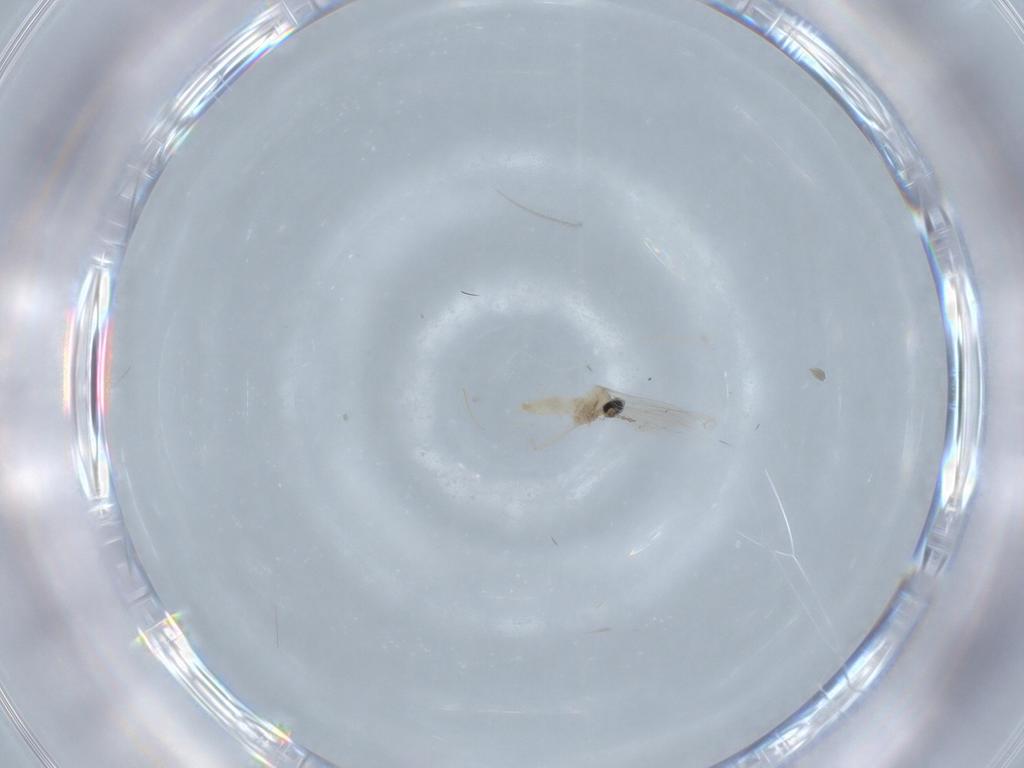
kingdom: Animalia
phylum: Arthropoda
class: Insecta
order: Diptera
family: Cecidomyiidae
